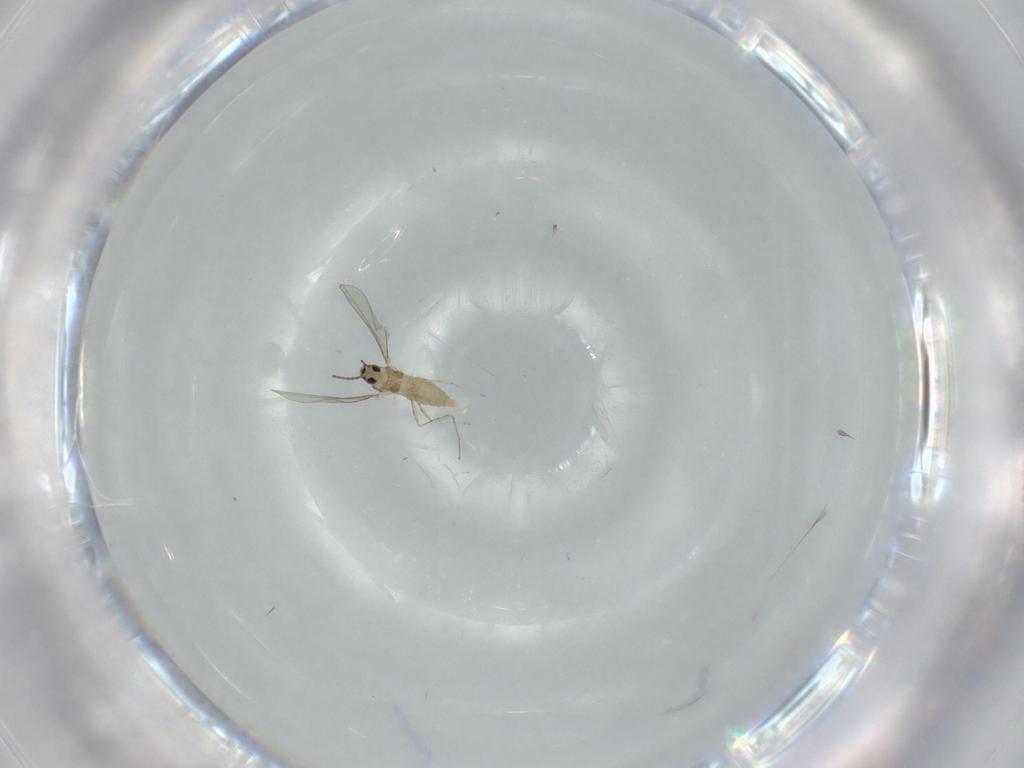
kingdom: Animalia
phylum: Arthropoda
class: Insecta
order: Diptera
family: Cecidomyiidae
